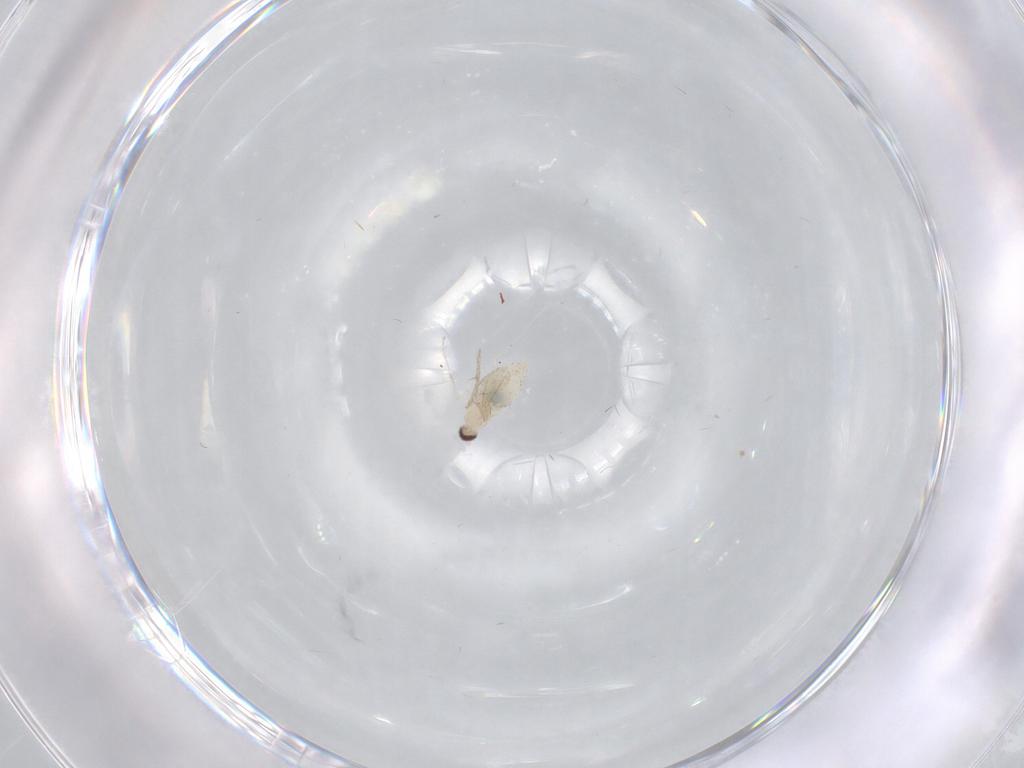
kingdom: Animalia
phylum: Arthropoda
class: Insecta
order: Diptera
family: Cecidomyiidae
